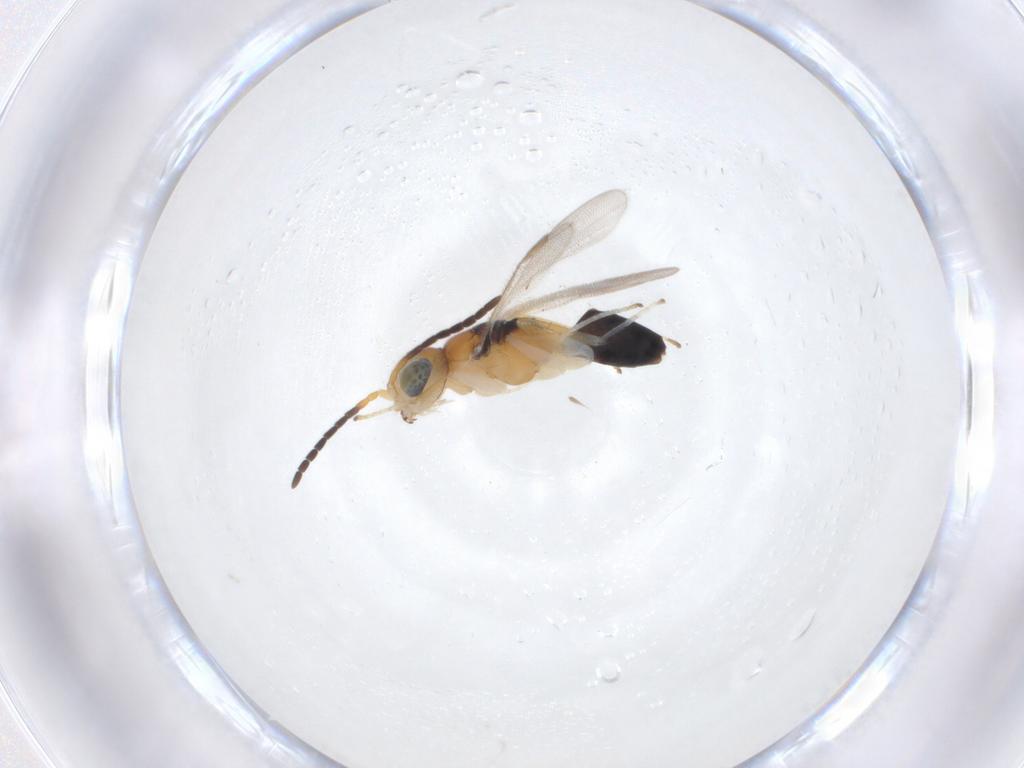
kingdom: Animalia
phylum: Arthropoda
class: Insecta
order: Hymenoptera
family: Dryinidae
